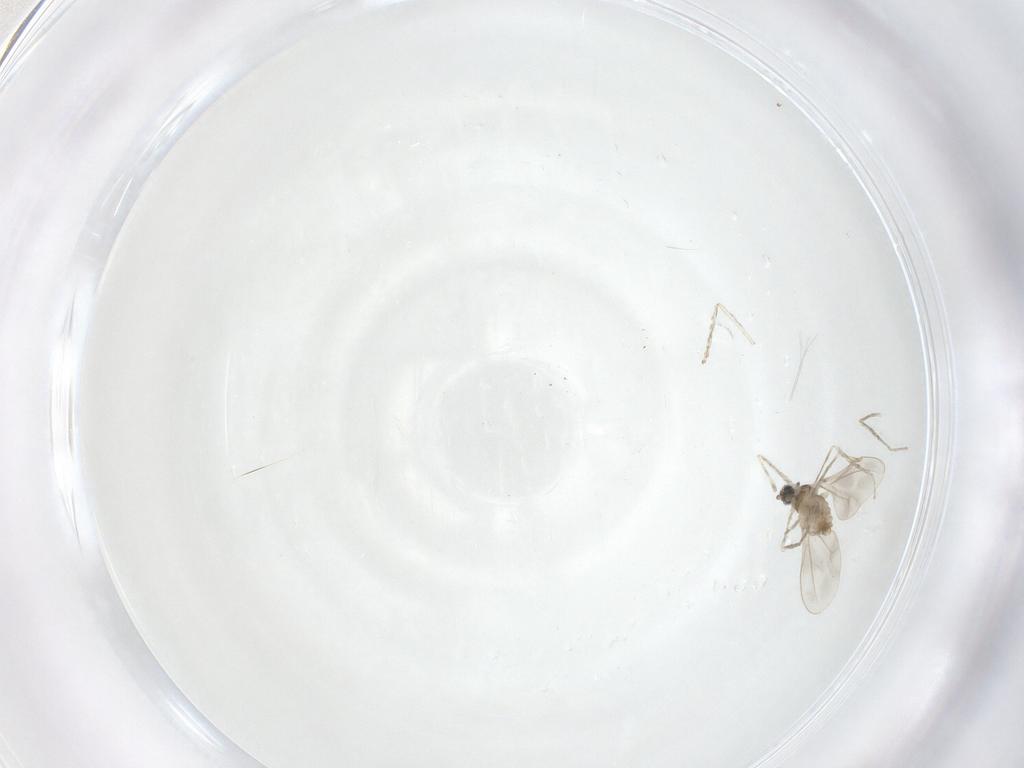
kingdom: Animalia
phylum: Arthropoda
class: Insecta
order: Diptera
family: Cecidomyiidae
